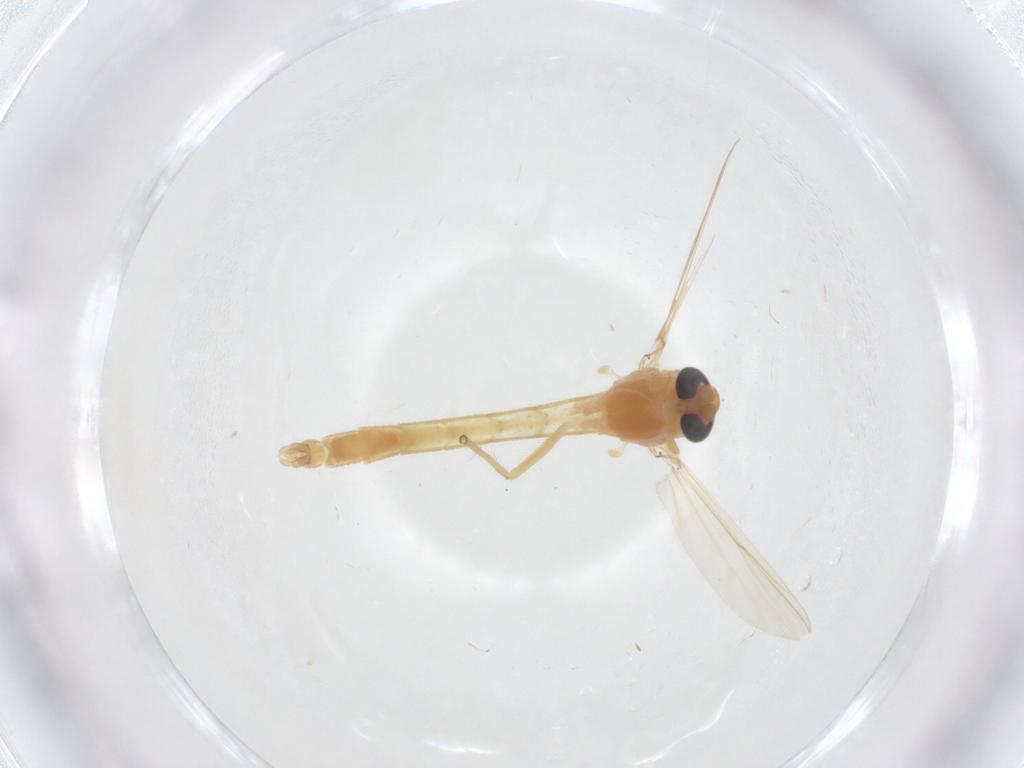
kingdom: Animalia
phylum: Arthropoda
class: Insecta
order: Diptera
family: Chironomidae
